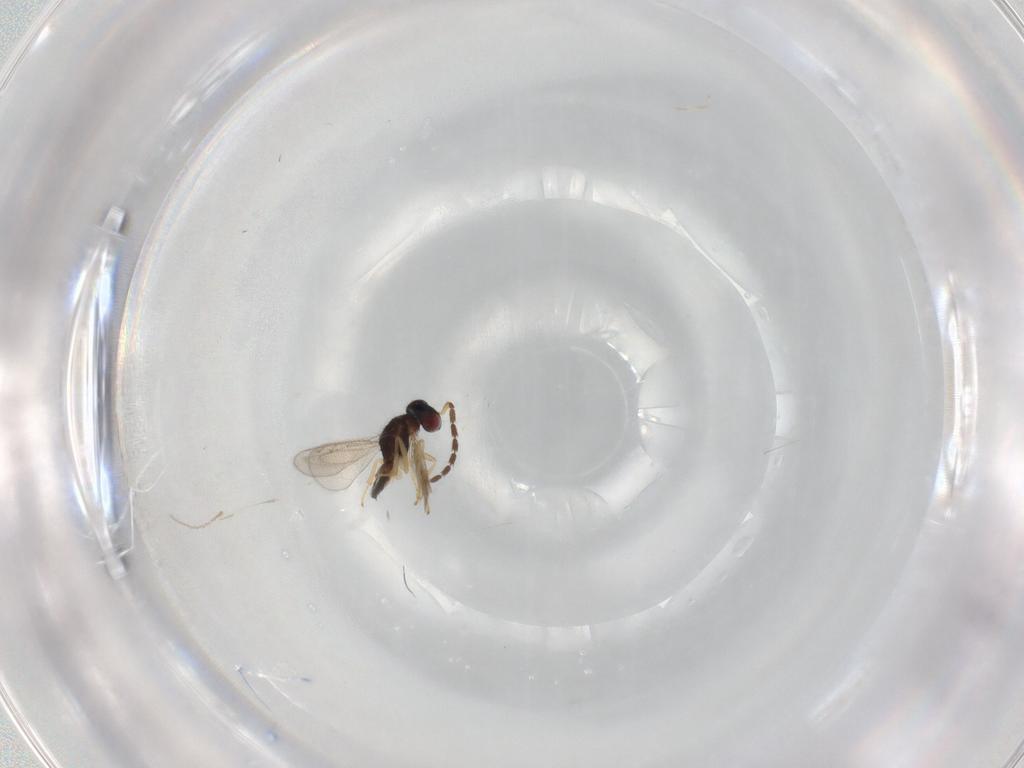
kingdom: Animalia
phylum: Arthropoda
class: Insecta
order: Hymenoptera
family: Eulophidae
